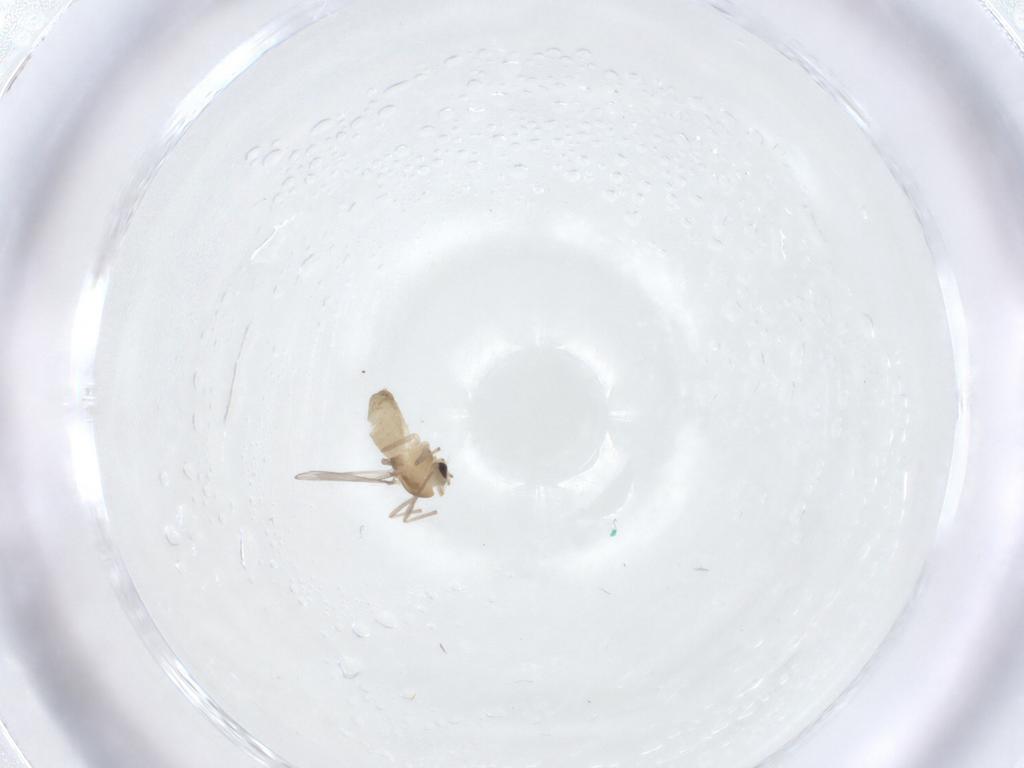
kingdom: Animalia
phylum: Arthropoda
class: Insecta
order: Diptera
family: Chironomidae
